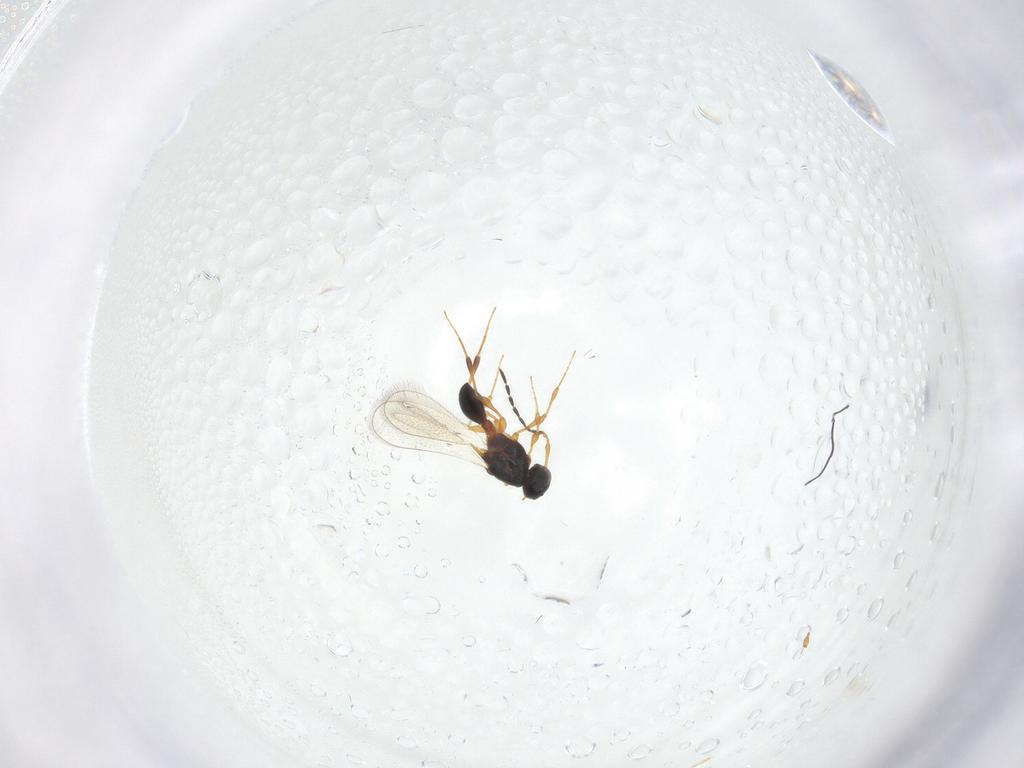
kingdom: Animalia
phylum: Arthropoda
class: Insecta
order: Hymenoptera
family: Platygastridae
